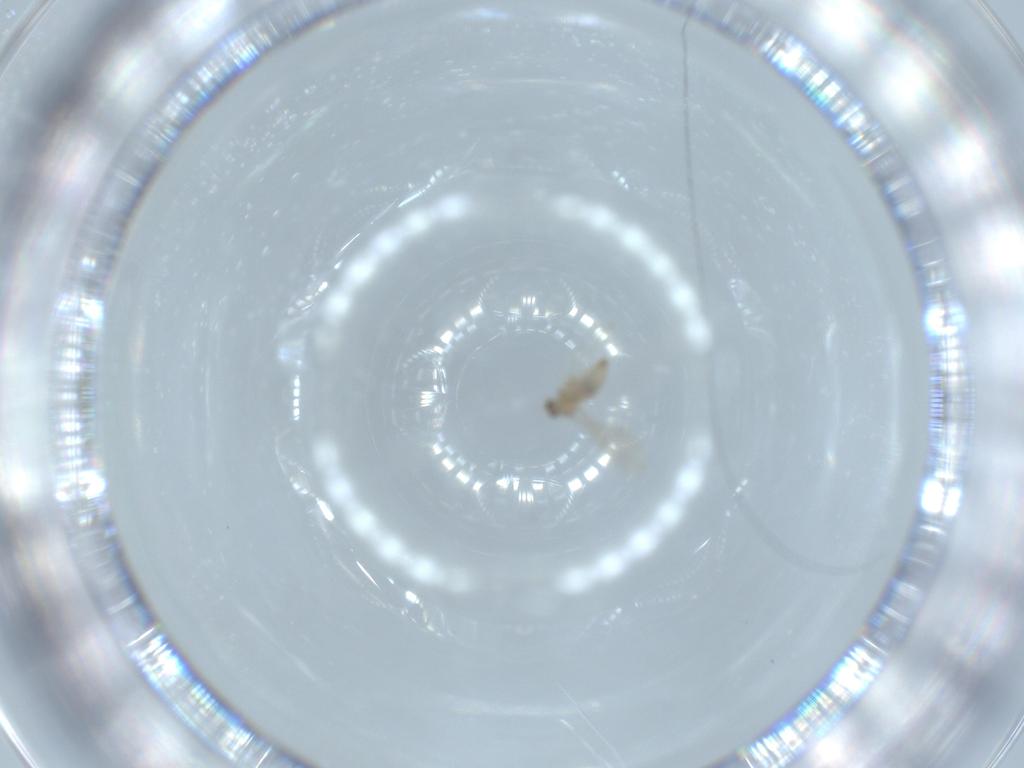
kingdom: Animalia
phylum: Arthropoda
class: Insecta
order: Diptera
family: Cecidomyiidae
